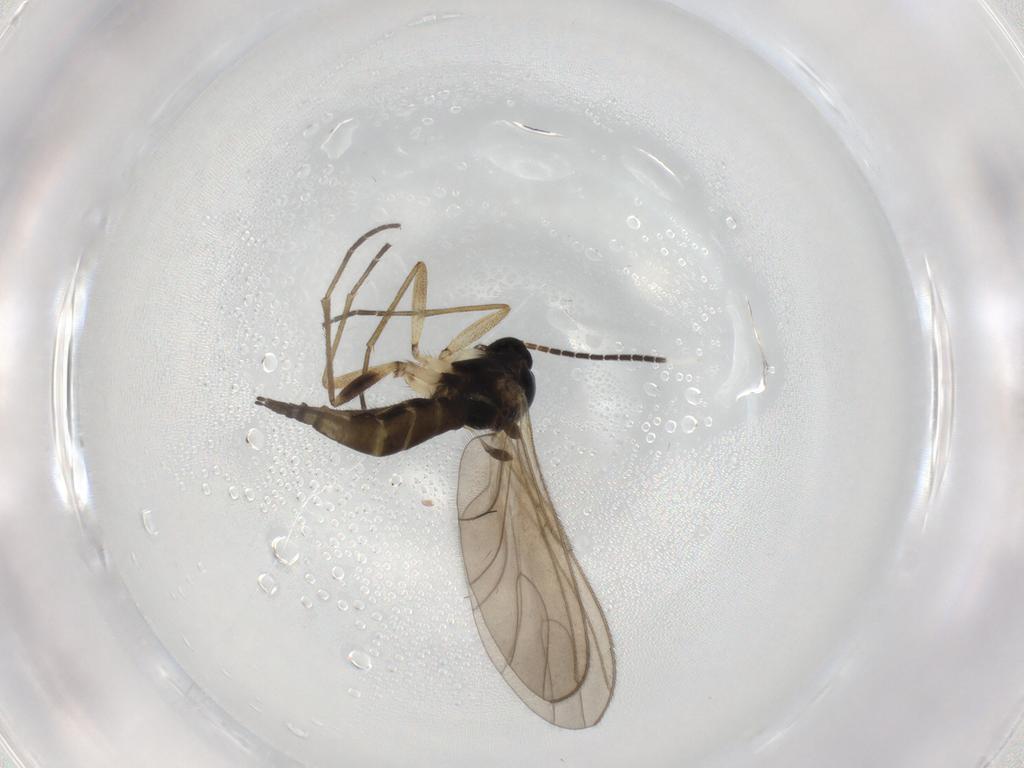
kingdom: Animalia
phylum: Arthropoda
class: Insecta
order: Diptera
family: Sciaridae
